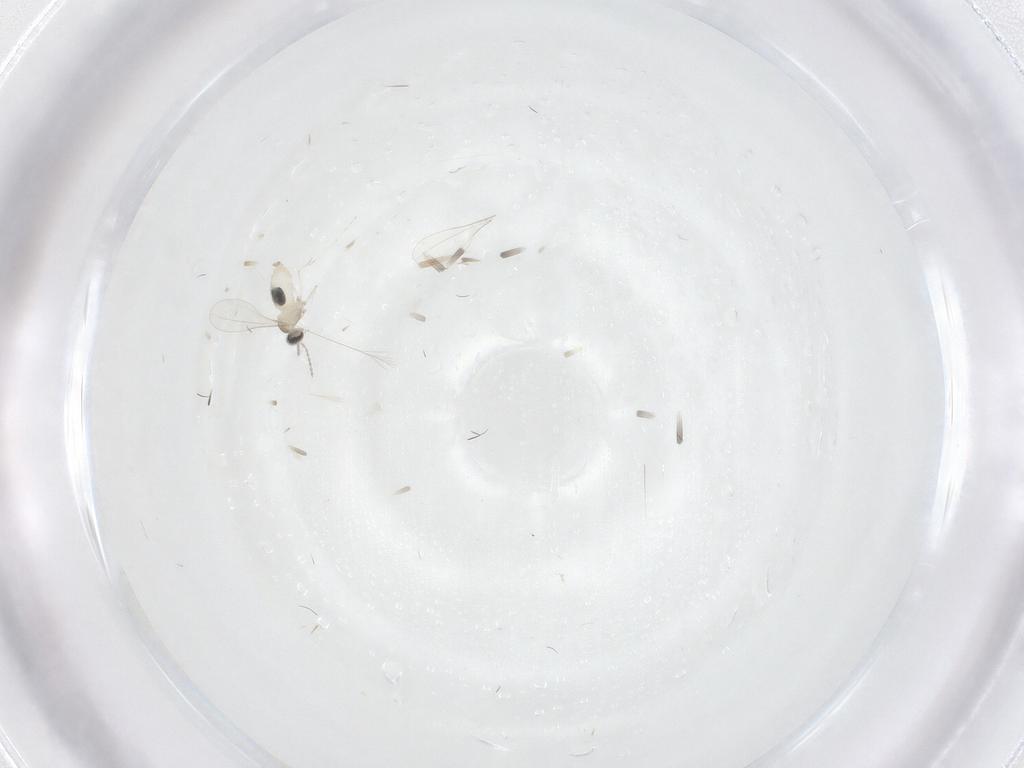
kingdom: Animalia
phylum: Arthropoda
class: Insecta
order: Diptera
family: Cecidomyiidae
